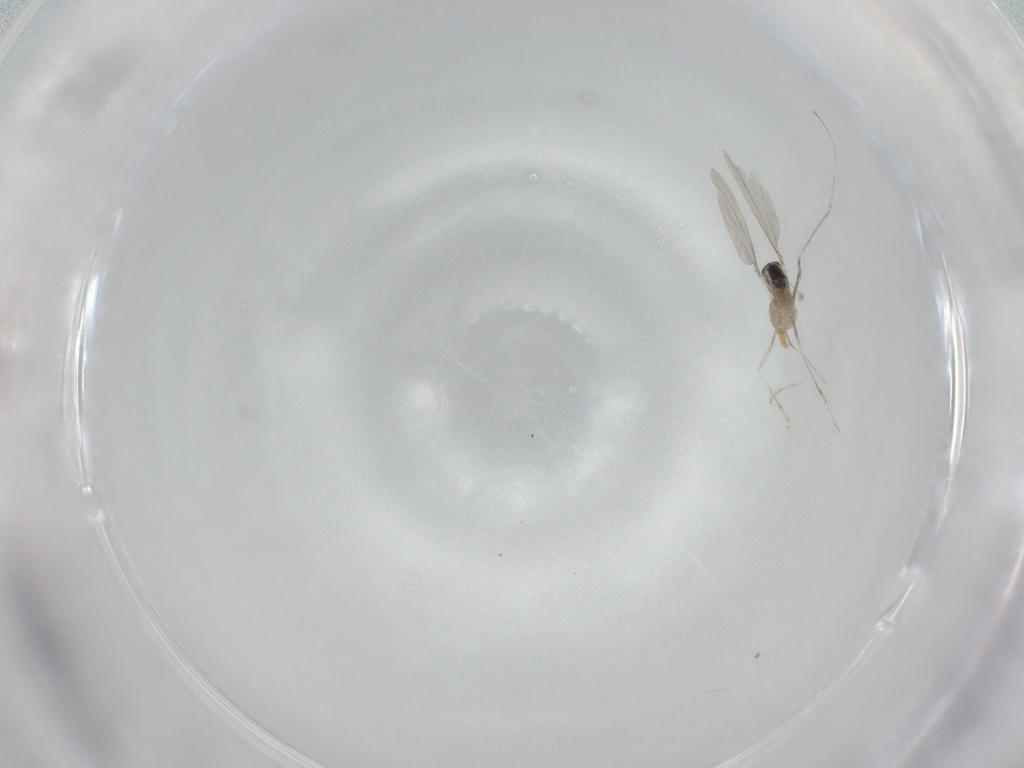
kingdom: Animalia
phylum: Arthropoda
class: Insecta
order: Diptera
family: Cecidomyiidae
